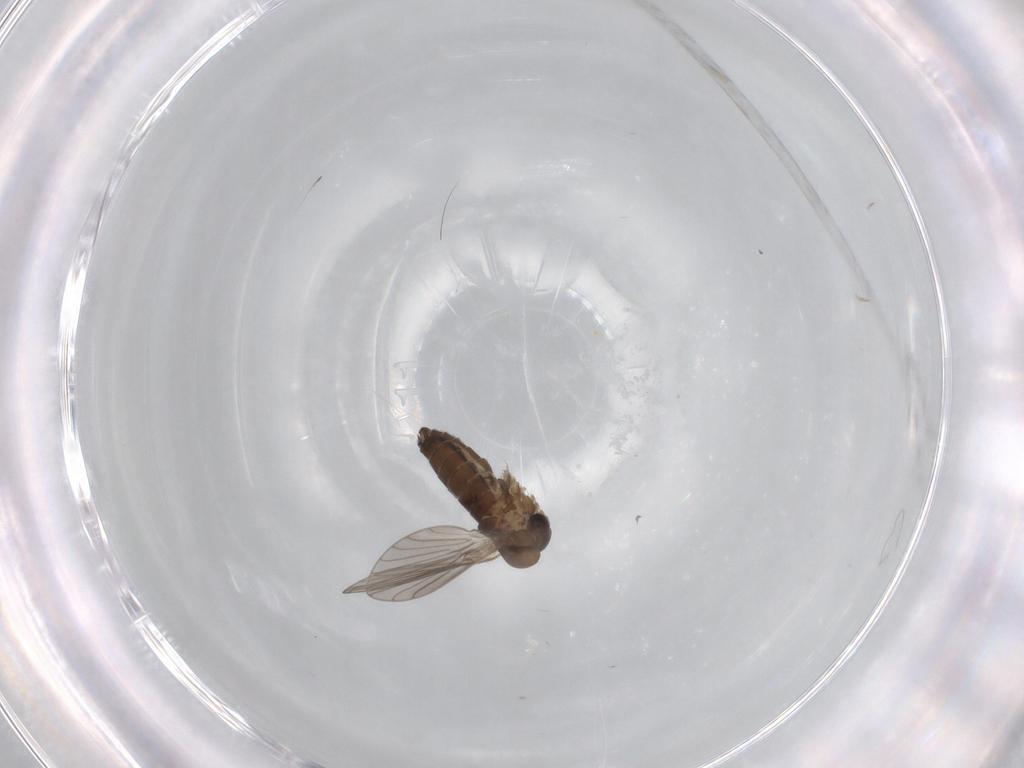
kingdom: Animalia
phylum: Arthropoda
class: Insecta
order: Diptera
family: Psychodidae
